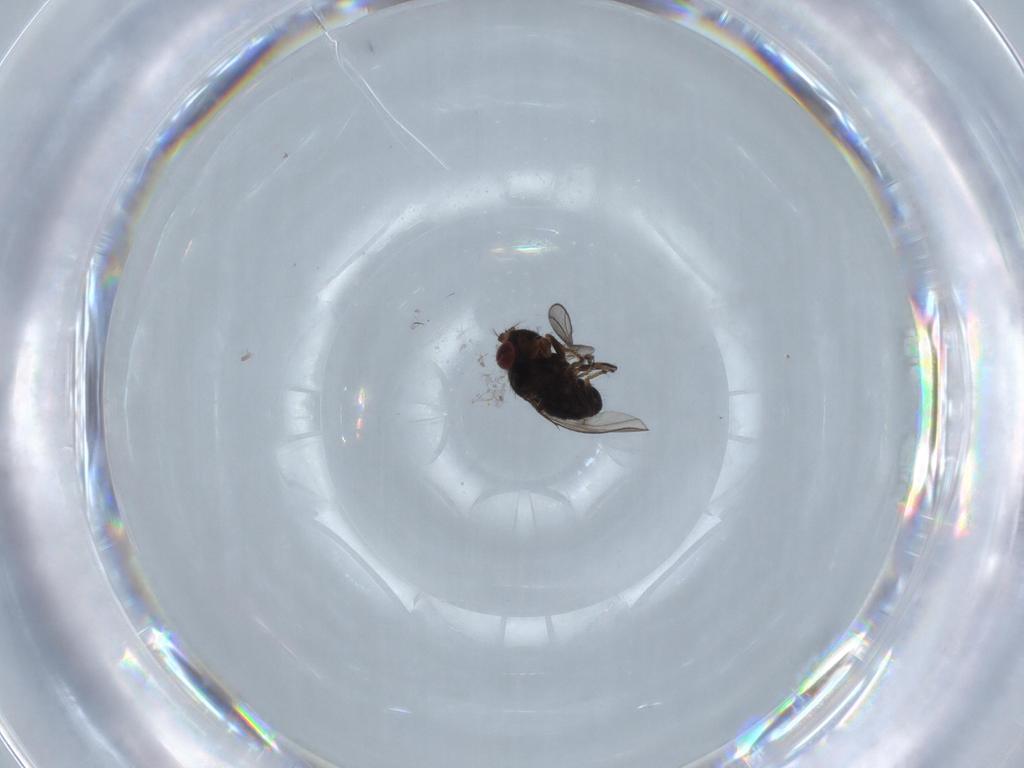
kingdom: Animalia
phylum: Arthropoda
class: Insecta
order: Diptera
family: Ephydridae
